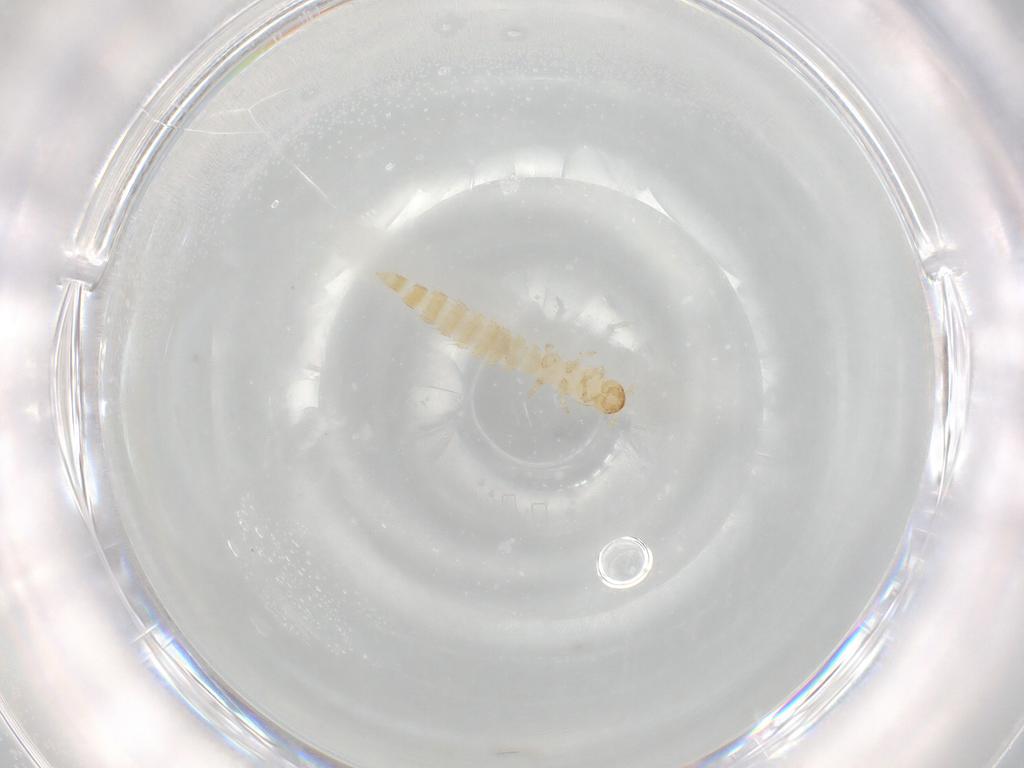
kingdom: Animalia
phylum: Arthropoda
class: Insecta
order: Coleoptera
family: Staphylinidae
